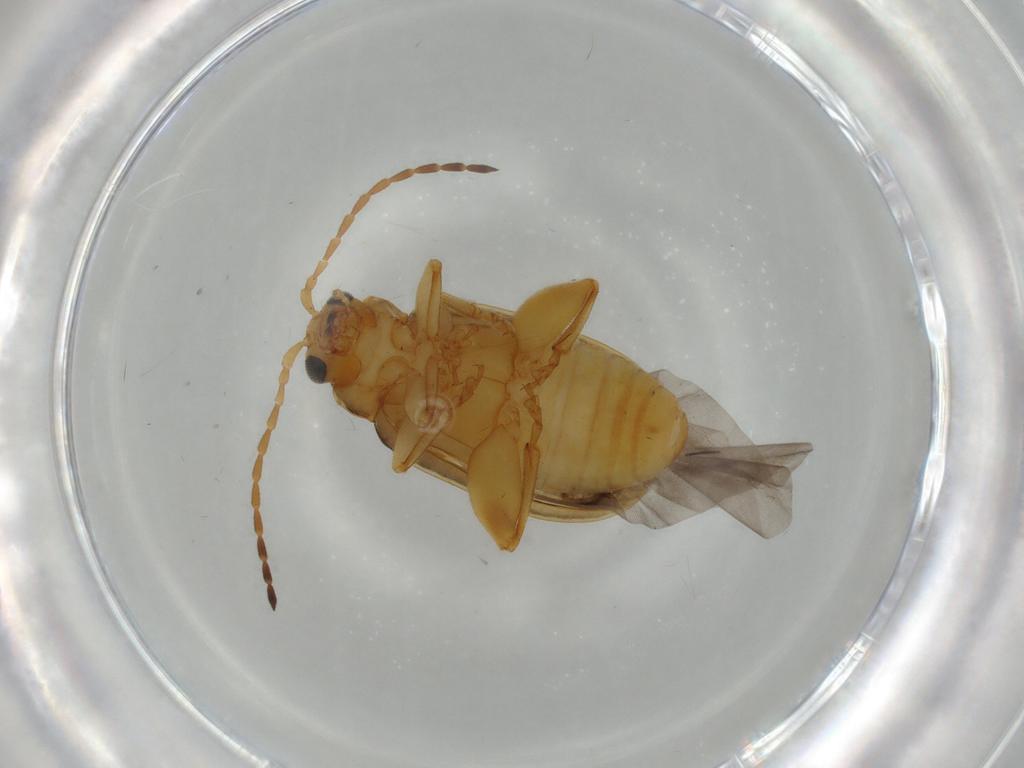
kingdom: Animalia
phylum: Arthropoda
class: Insecta
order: Coleoptera
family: Chrysomelidae
